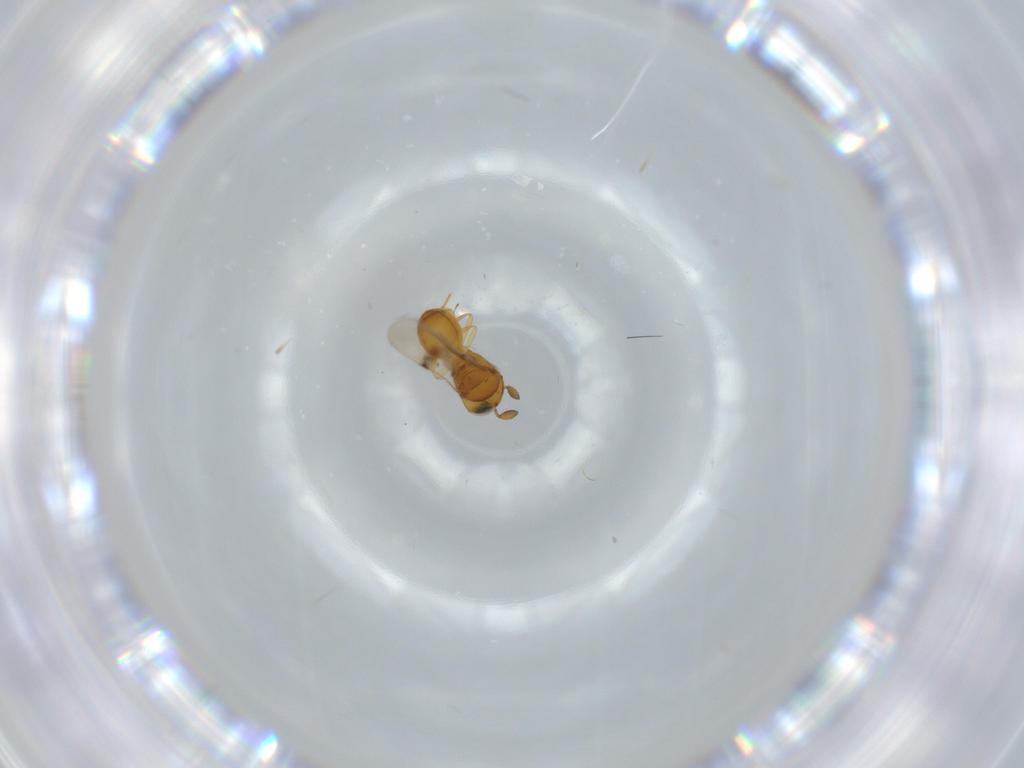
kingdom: Animalia
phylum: Arthropoda
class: Insecta
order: Hymenoptera
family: Scelionidae
